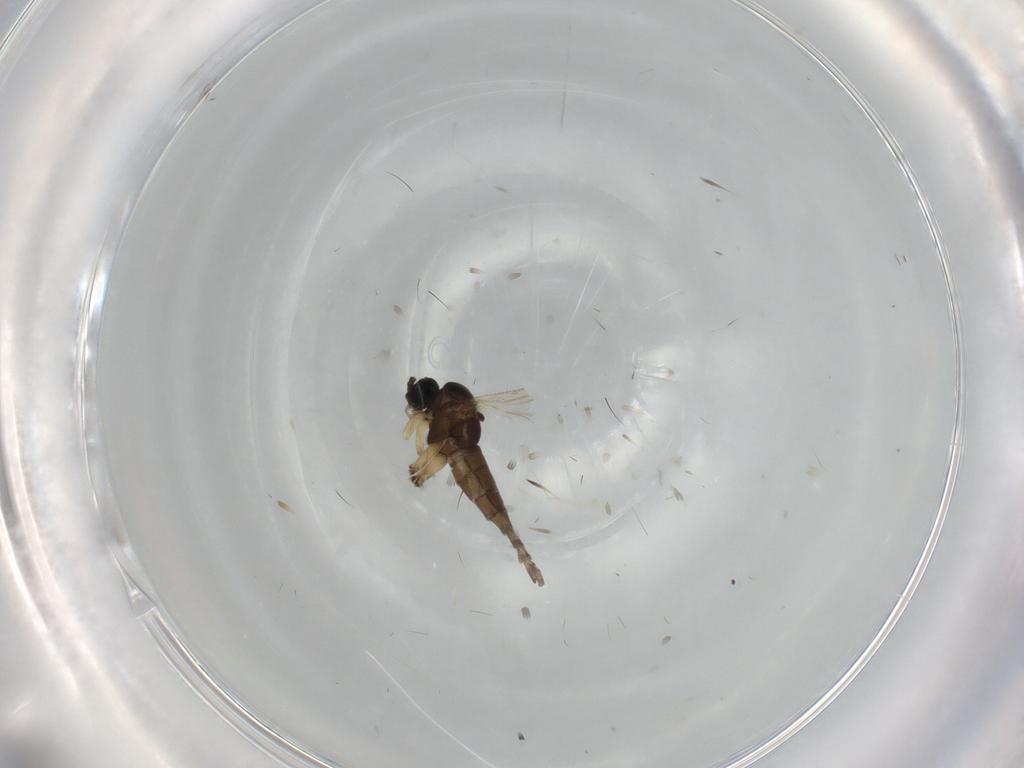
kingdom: Animalia
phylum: Arthropoda
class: Insecta
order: Diptera
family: Sciaridae
